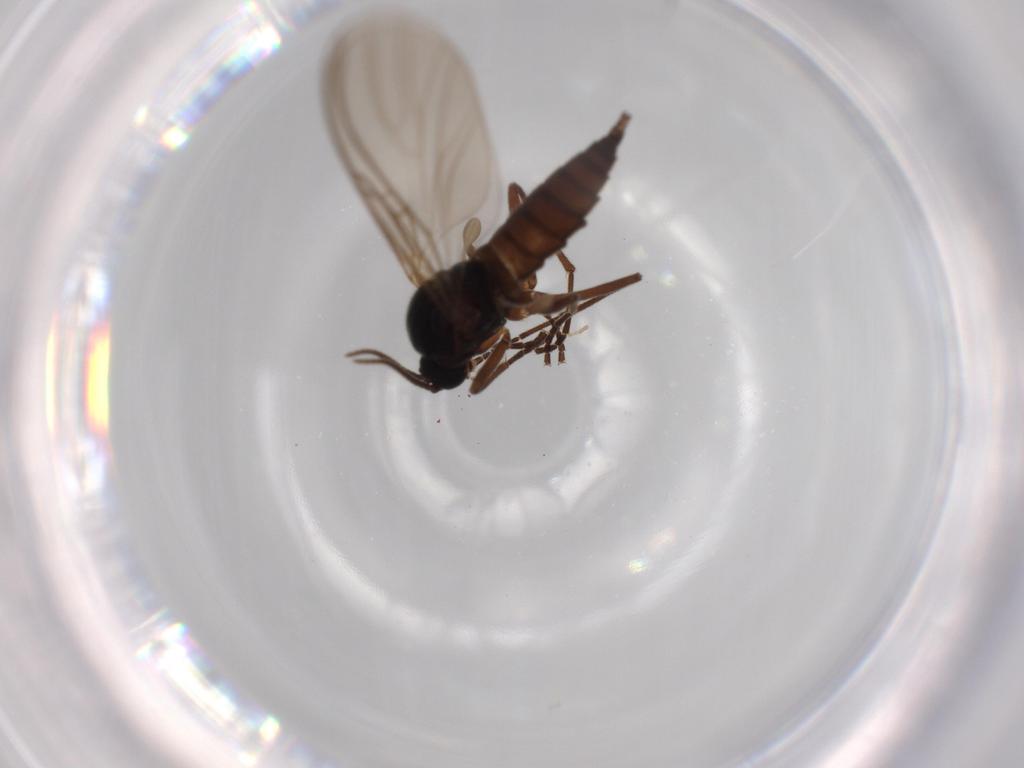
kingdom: Animalia
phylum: Arthropoda
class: Insecta
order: Diptera
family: Sciaridae
